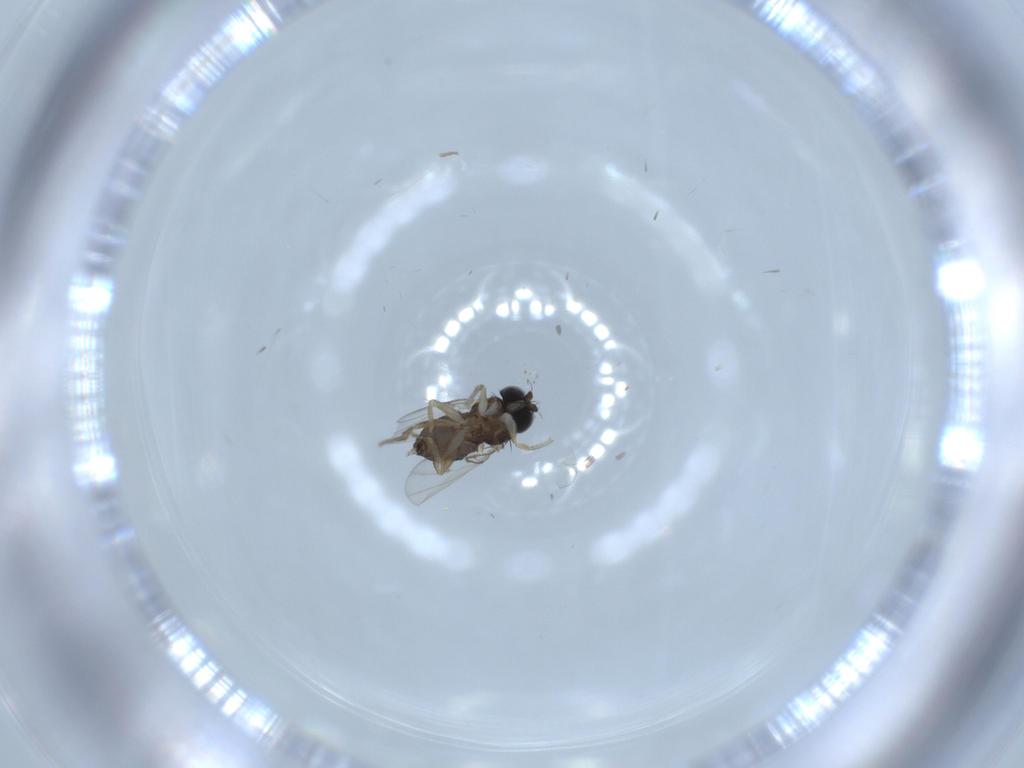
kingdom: Animalia
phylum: Arthropoda
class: Insecta
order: Diptera
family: Phoridae
